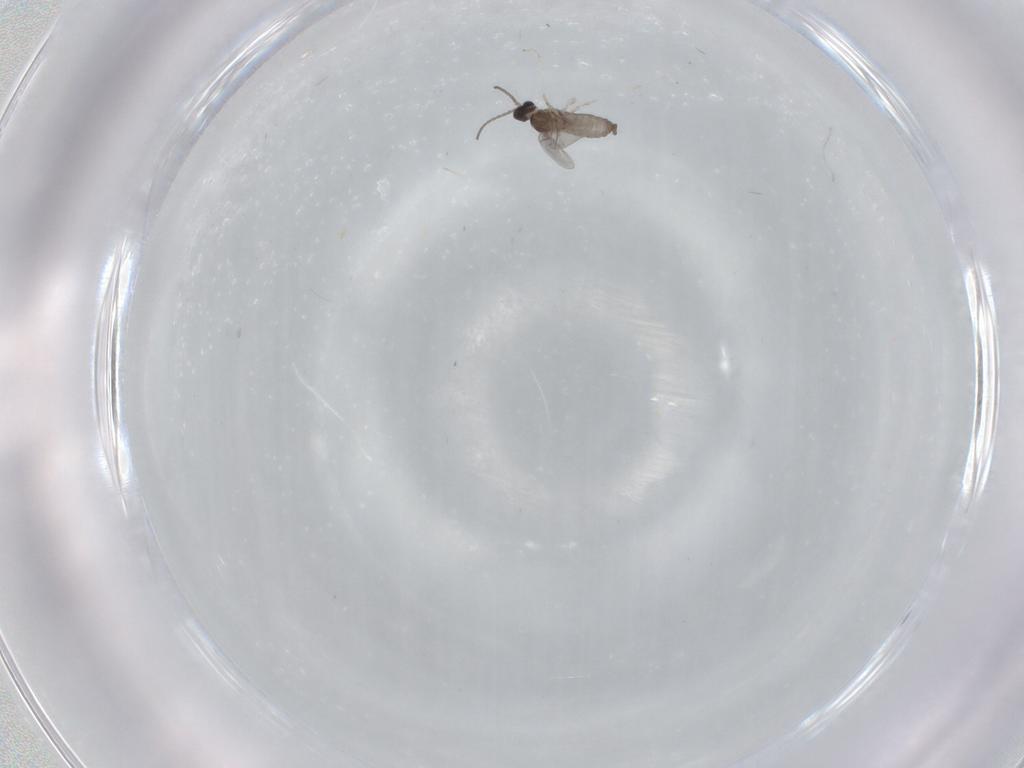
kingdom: Animalia
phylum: Arthropoda
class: Insecta
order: Diptera
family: Cecidomyiidae
